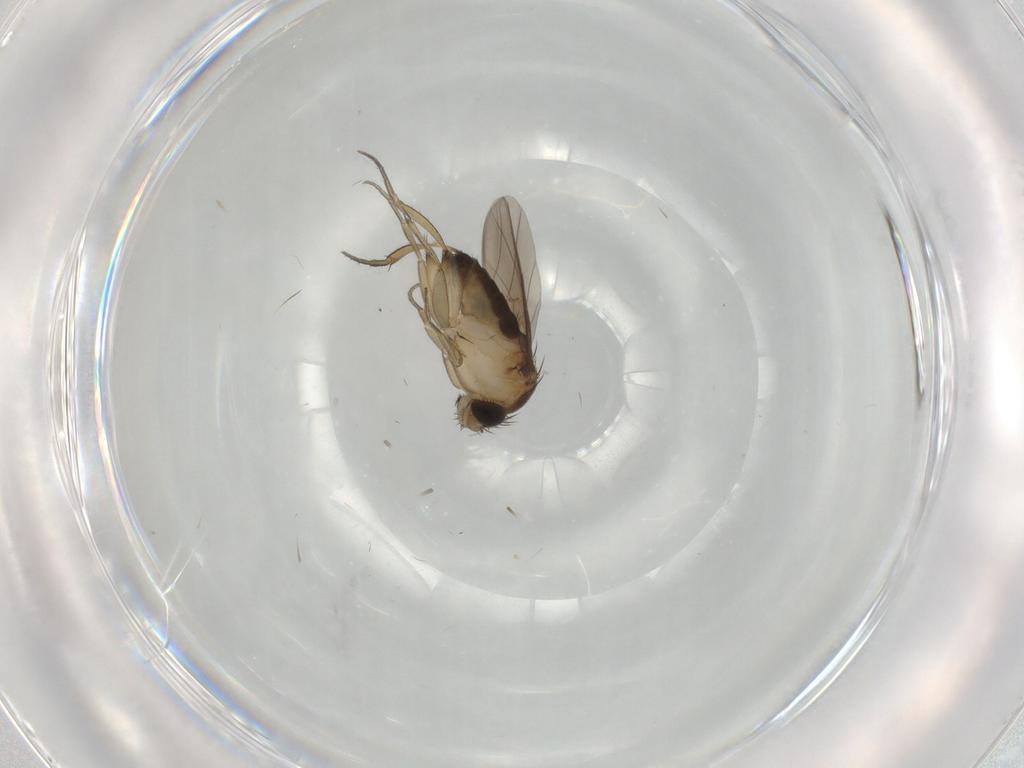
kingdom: Animalia
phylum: Arthropoda
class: Insecta
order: Diptera
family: Phoridae
